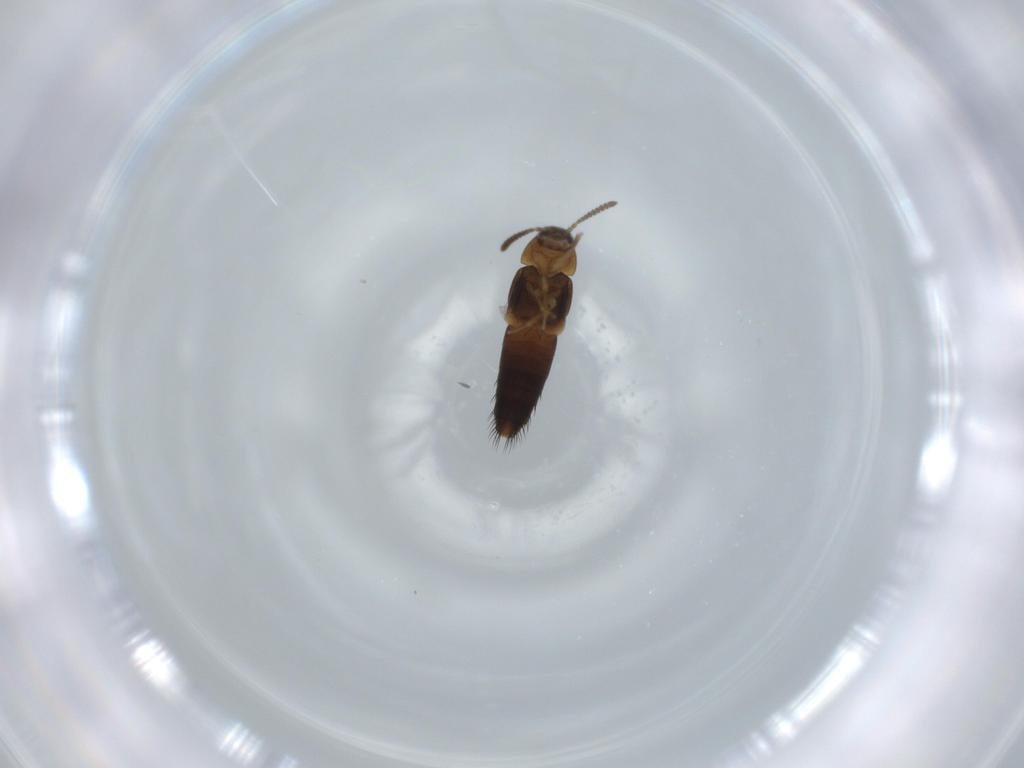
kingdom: Animalia
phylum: Arthropoda
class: Insecta
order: Coleoptera
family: Staphylinidae
